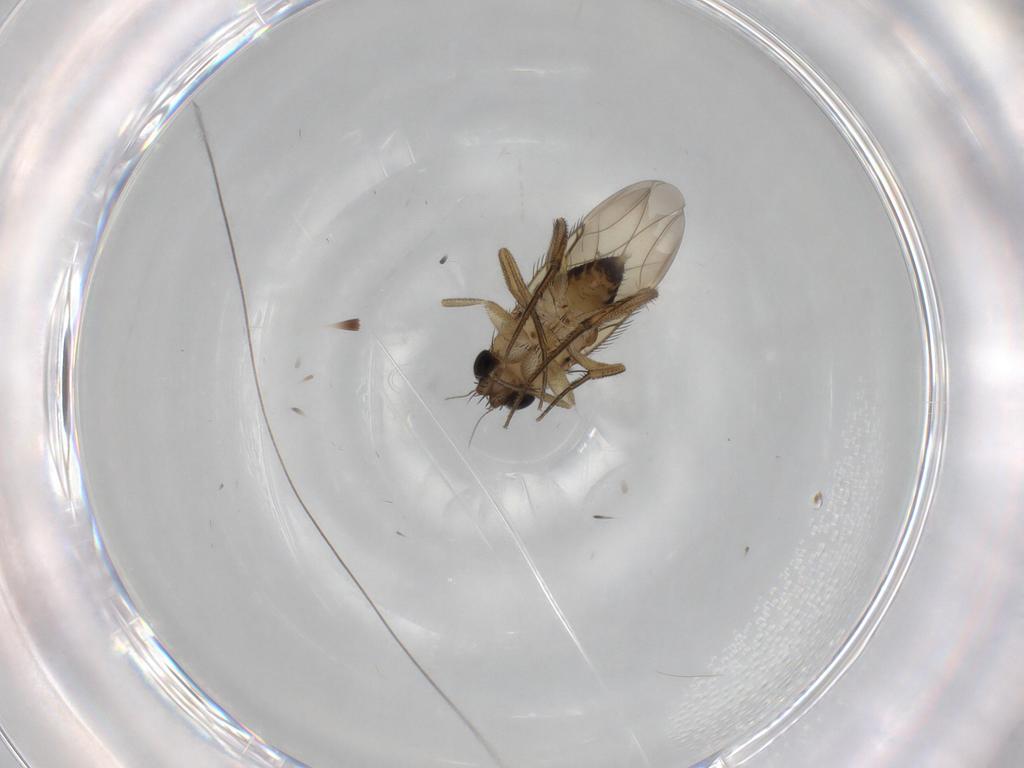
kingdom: Animalia
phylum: Arthropoda
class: Insecta
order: Diptera
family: Phoridae
